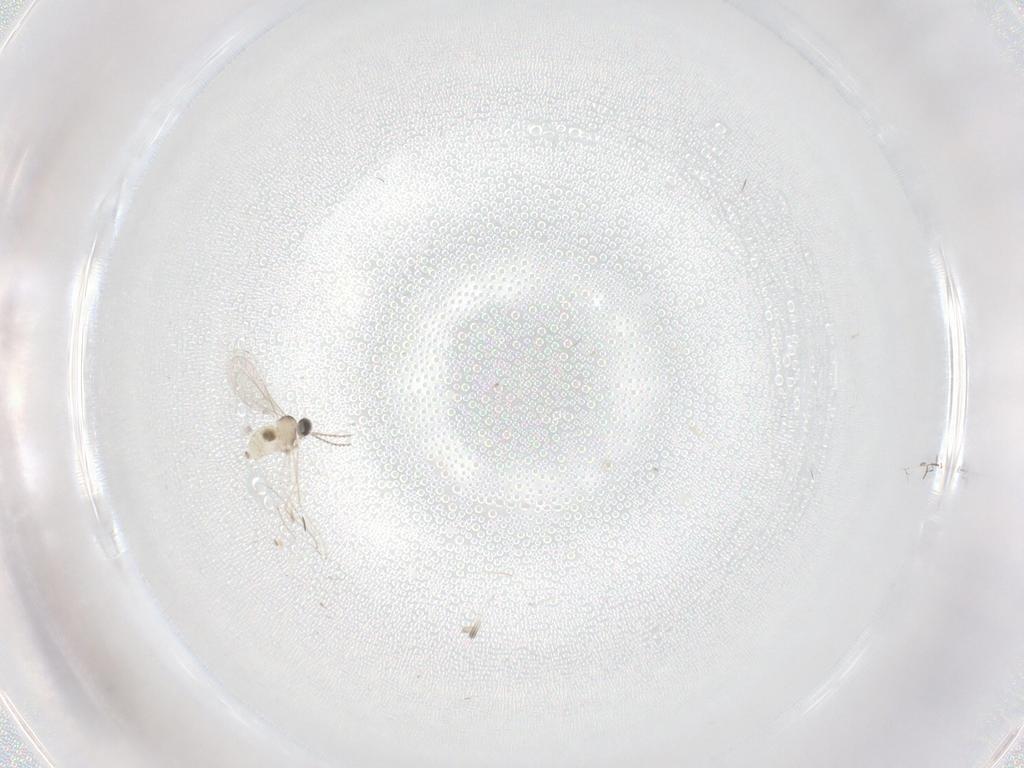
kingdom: Animalia
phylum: Arthropoda
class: Insecta
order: Diptera
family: Cecidomyiidae
